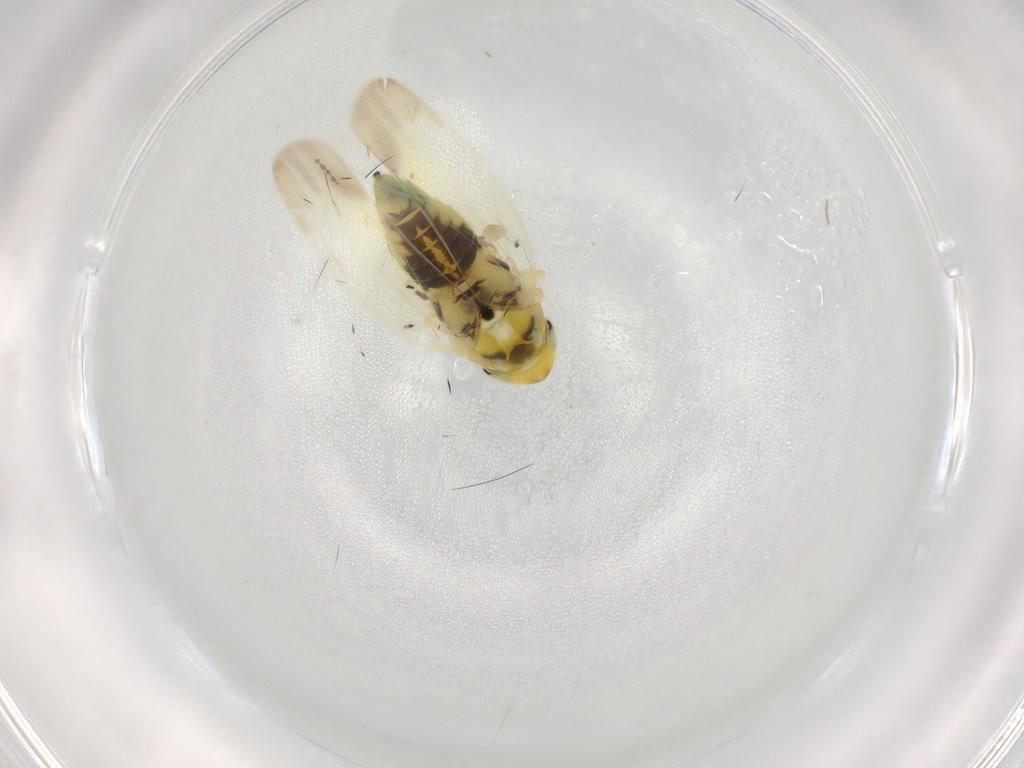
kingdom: Animalia
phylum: Arthropoda
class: Insecta
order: Hemiptera
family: Cicadellidae
